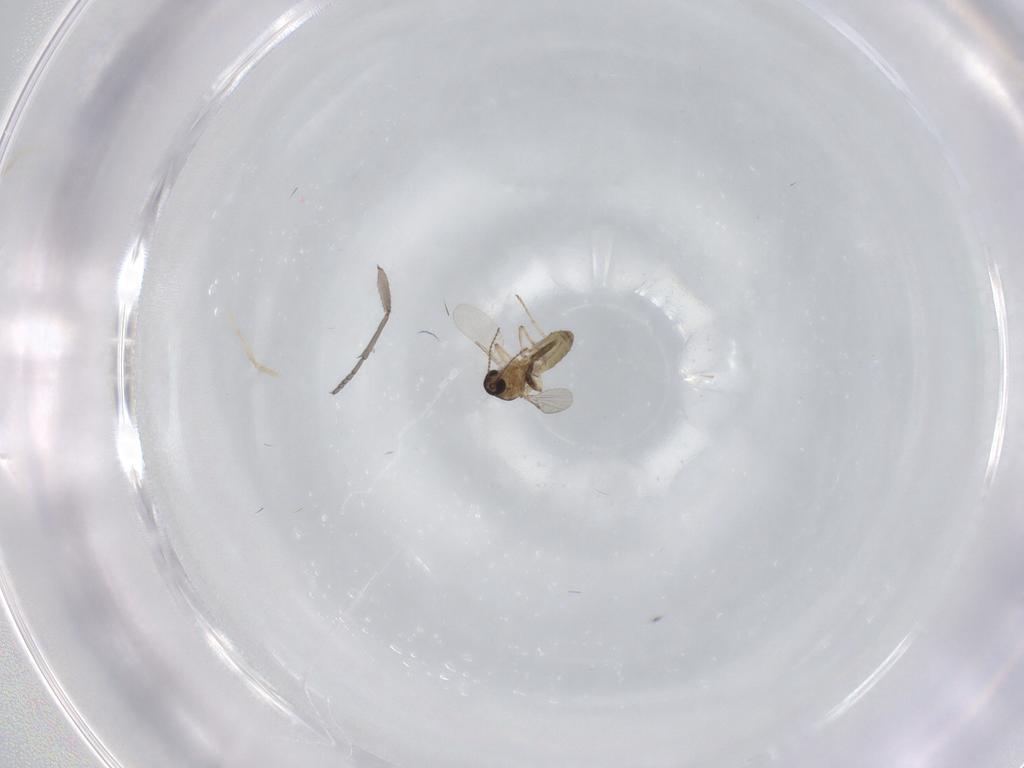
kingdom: Animalia
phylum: Arthropoda
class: Insecta
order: Diptera
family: Ceratopogonidae
